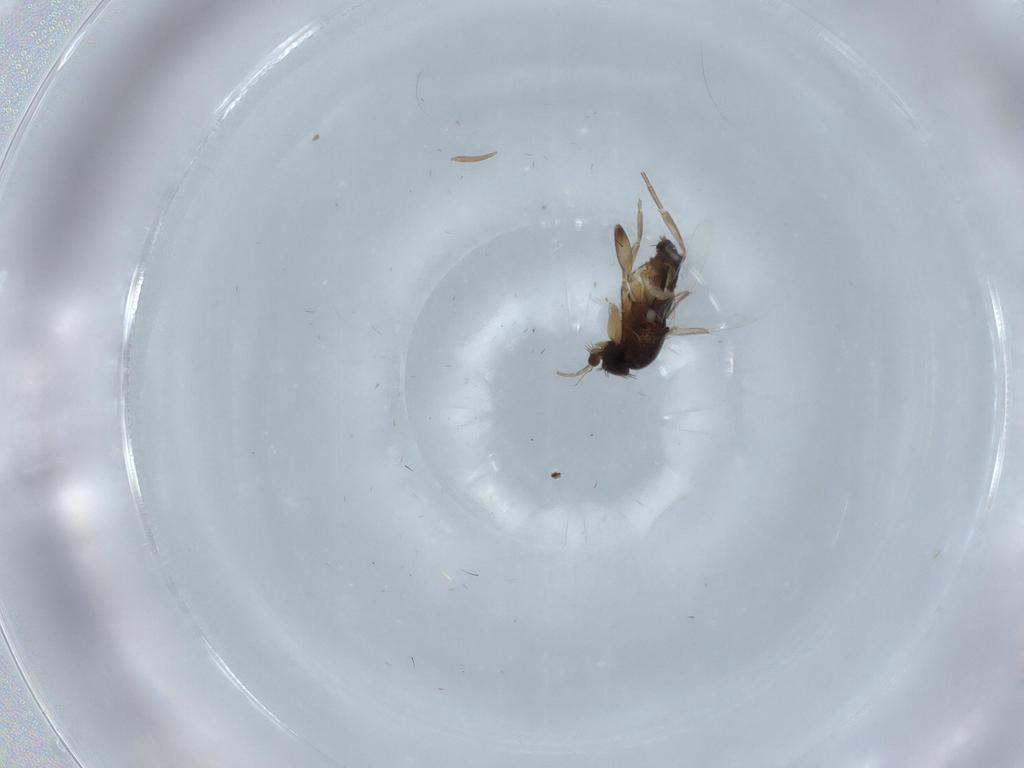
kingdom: Animalia
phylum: Arthropoda
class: Insecta
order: Diptera
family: Phoridae
